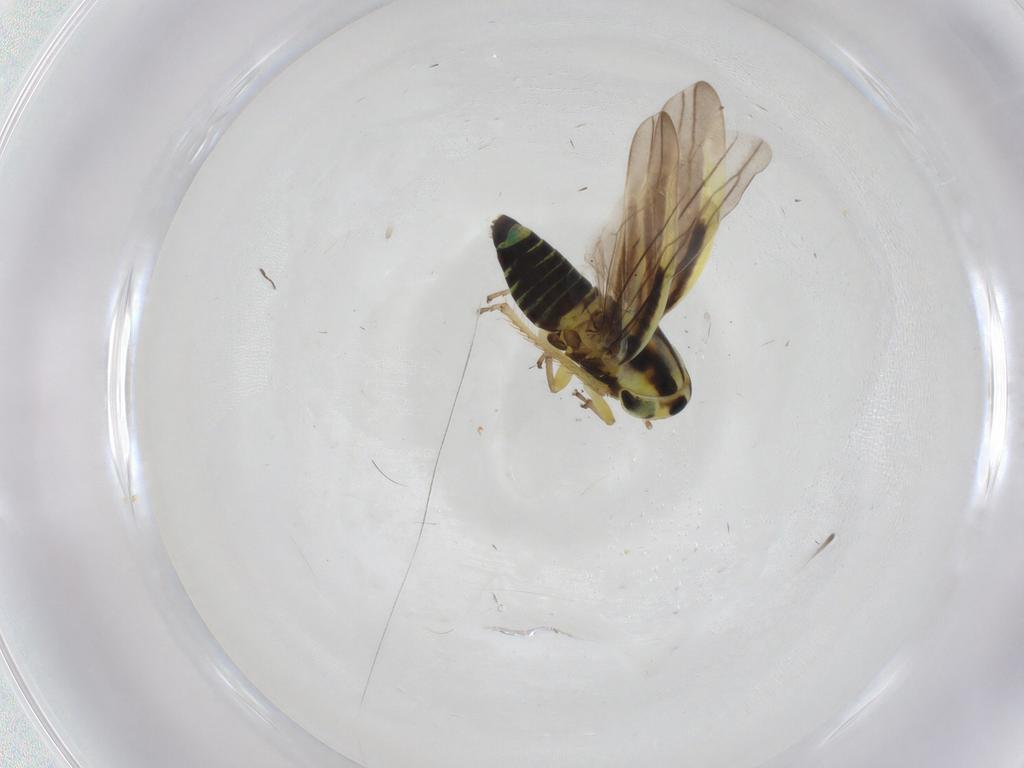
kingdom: Animalia
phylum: Arthropoda
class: Insecta
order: Hemiptera
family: Cicadellidae
